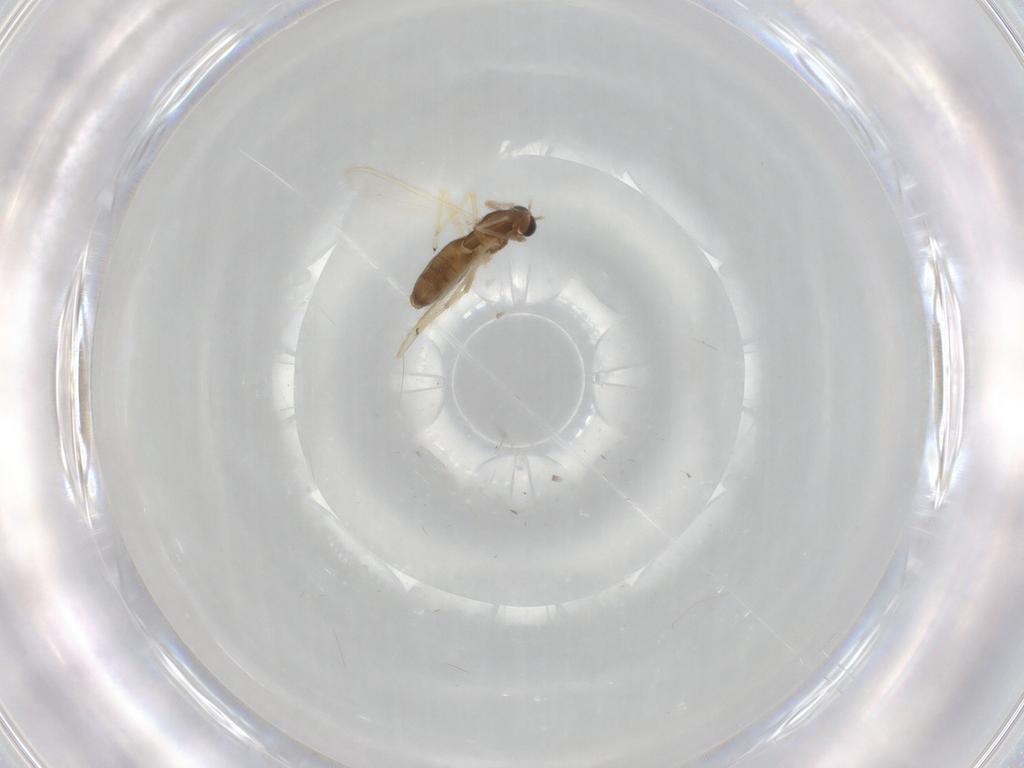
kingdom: Animalia
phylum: Arthropoda
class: Insecta
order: Diptera
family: Chironomidae
